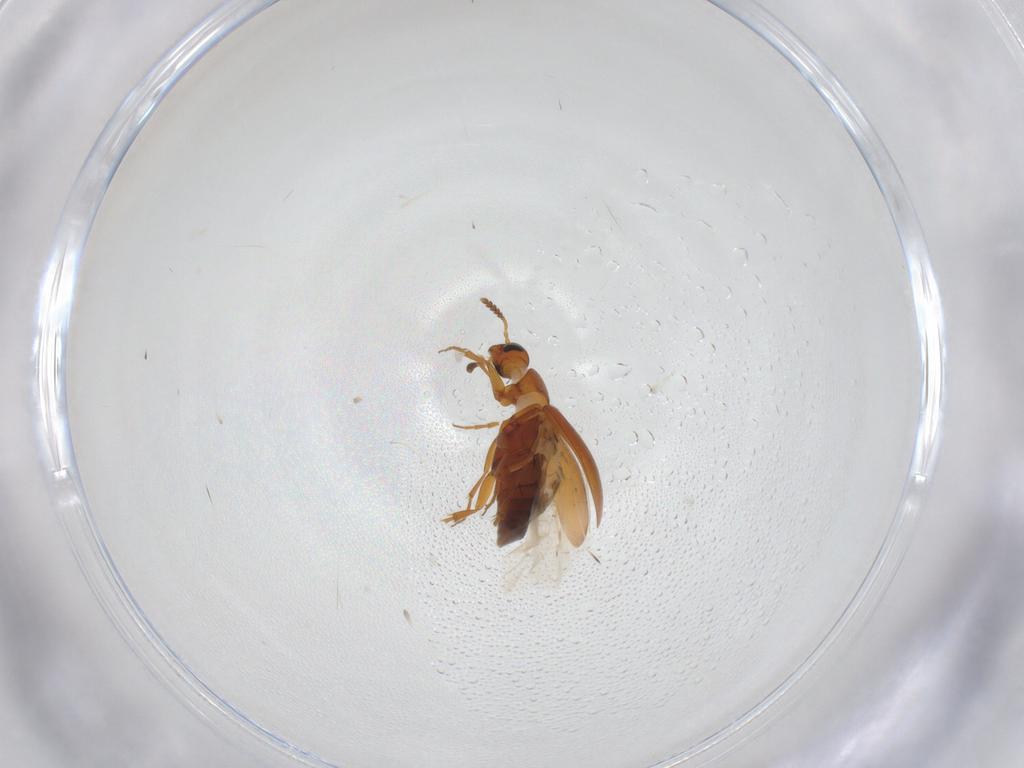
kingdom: Animalia
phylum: Arthropoda
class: Insecta
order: Coleoptera
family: Scraptiidae
